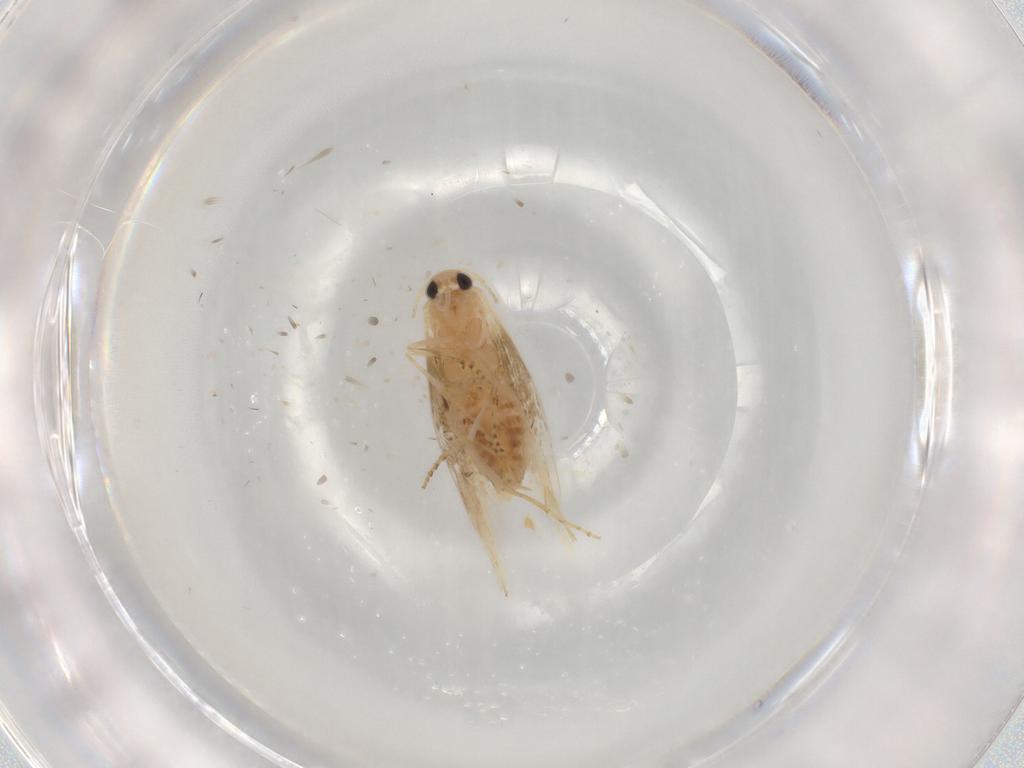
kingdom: Animalia
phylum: Arthropoda
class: Insecta
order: Lepidoptera
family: Bucculatricidae
